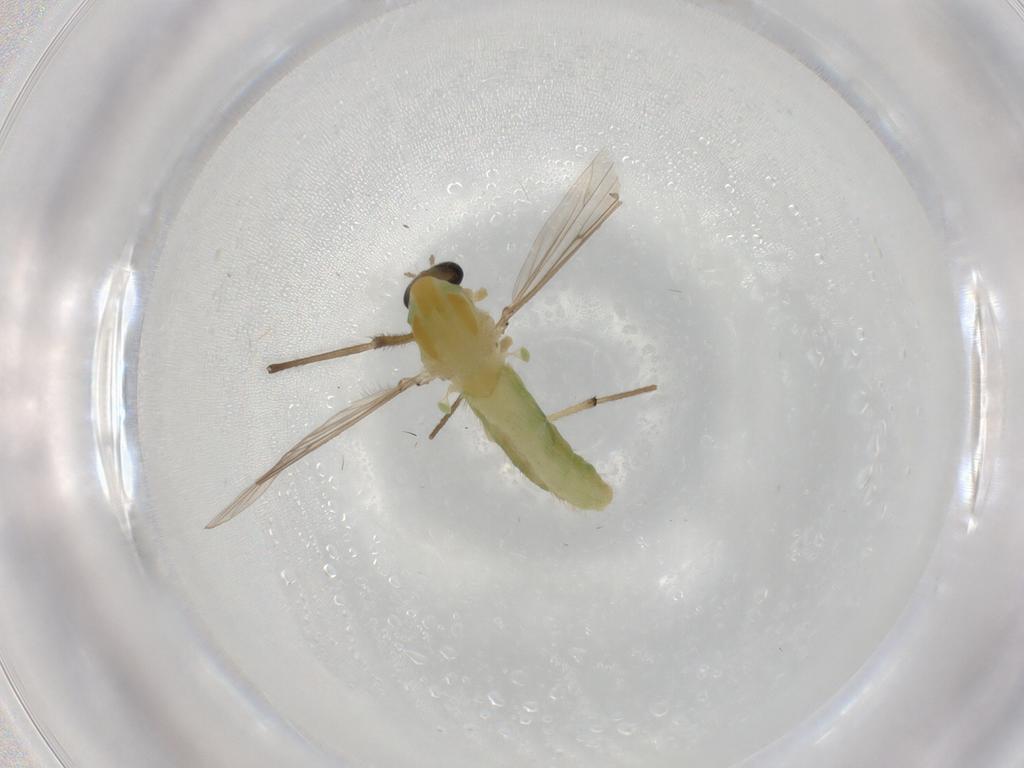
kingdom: Animalia
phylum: Arthropoda
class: Insecta
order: Diptera
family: Chironomidae
